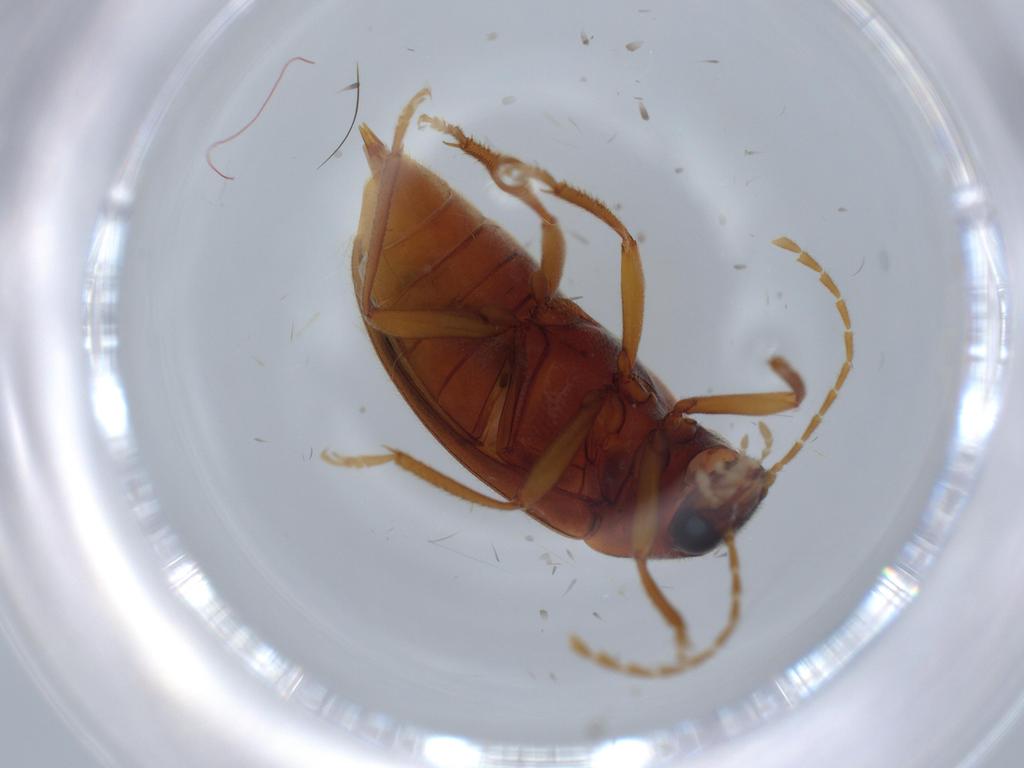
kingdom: Animalia
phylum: Arthropoda
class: Insecta
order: Coleoptera
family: Ptilodactylidae
